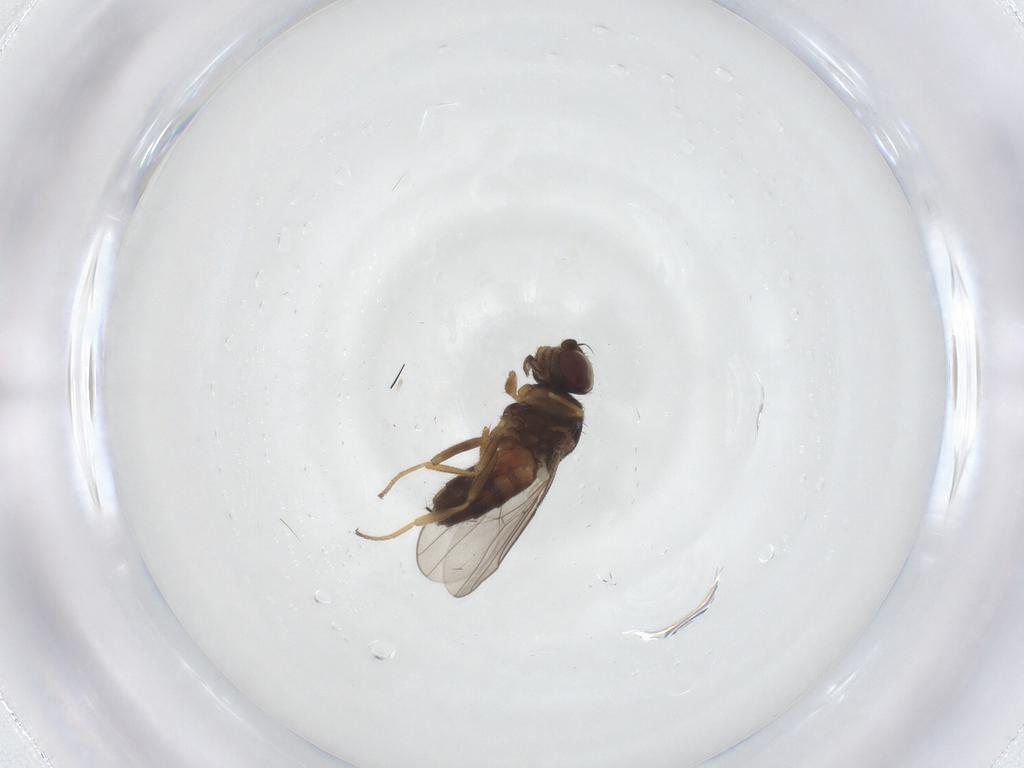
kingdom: Animalia
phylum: Arthropoda
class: Insecta
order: Diptera
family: Chloropidae
